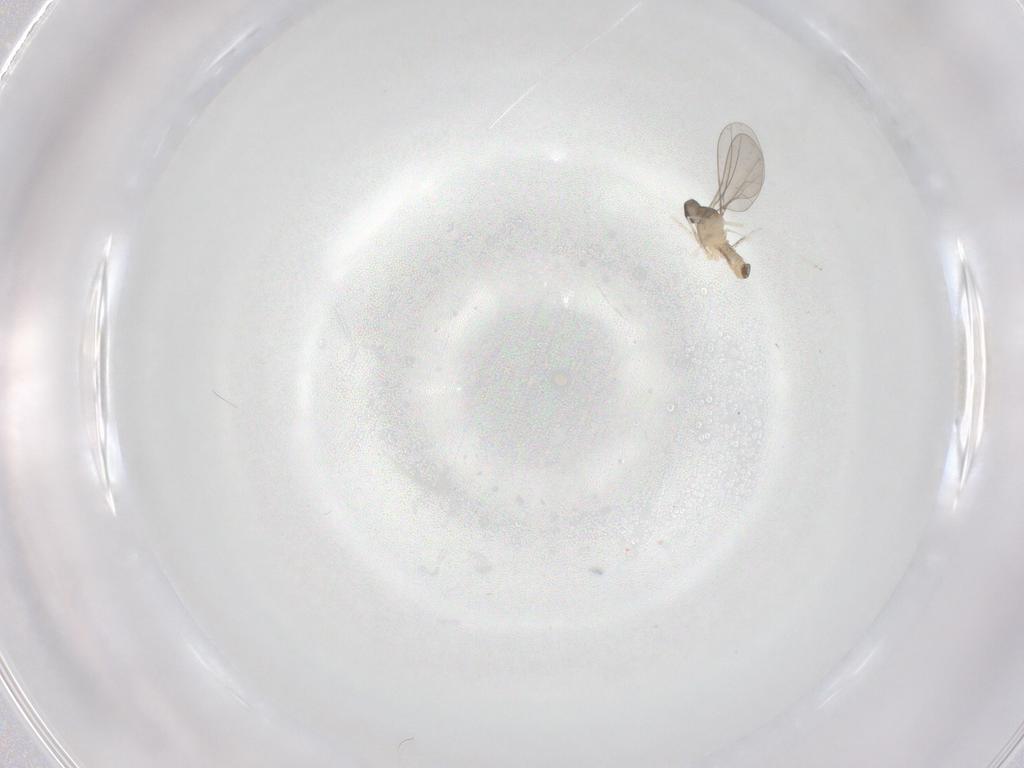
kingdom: Animalia
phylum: Arthropoda
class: Insecta
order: Diptera
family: Cecidomyiidae
